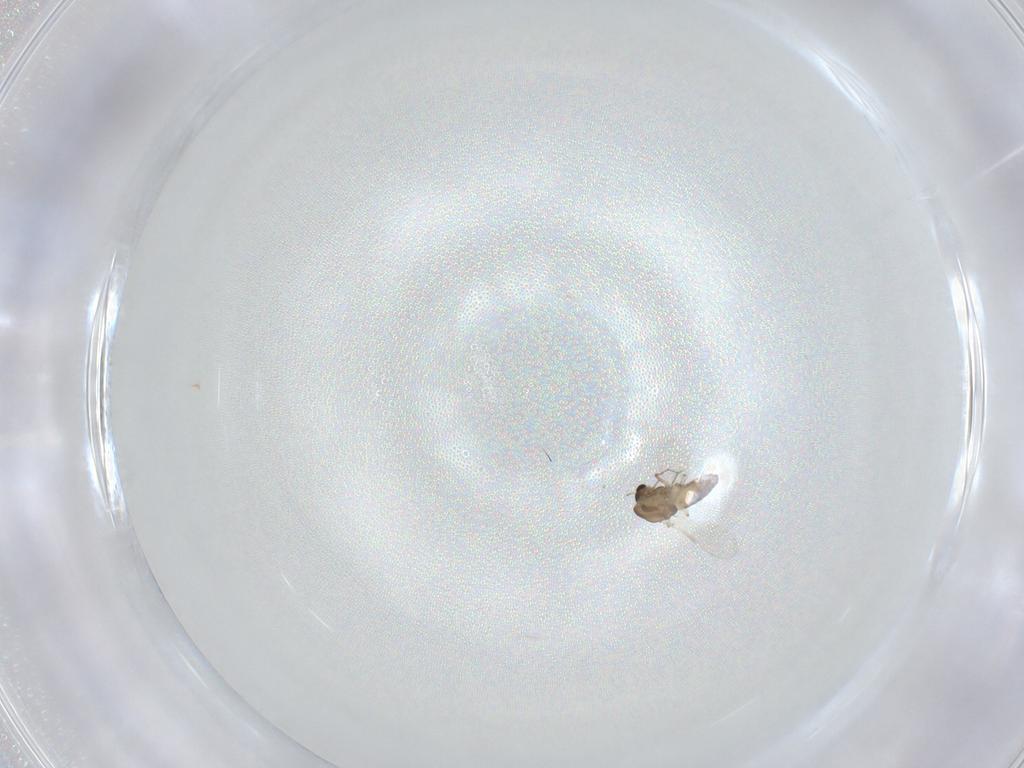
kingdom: Animalia
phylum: Arthropoda
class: Insecta
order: Diptera
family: Chironomidae
